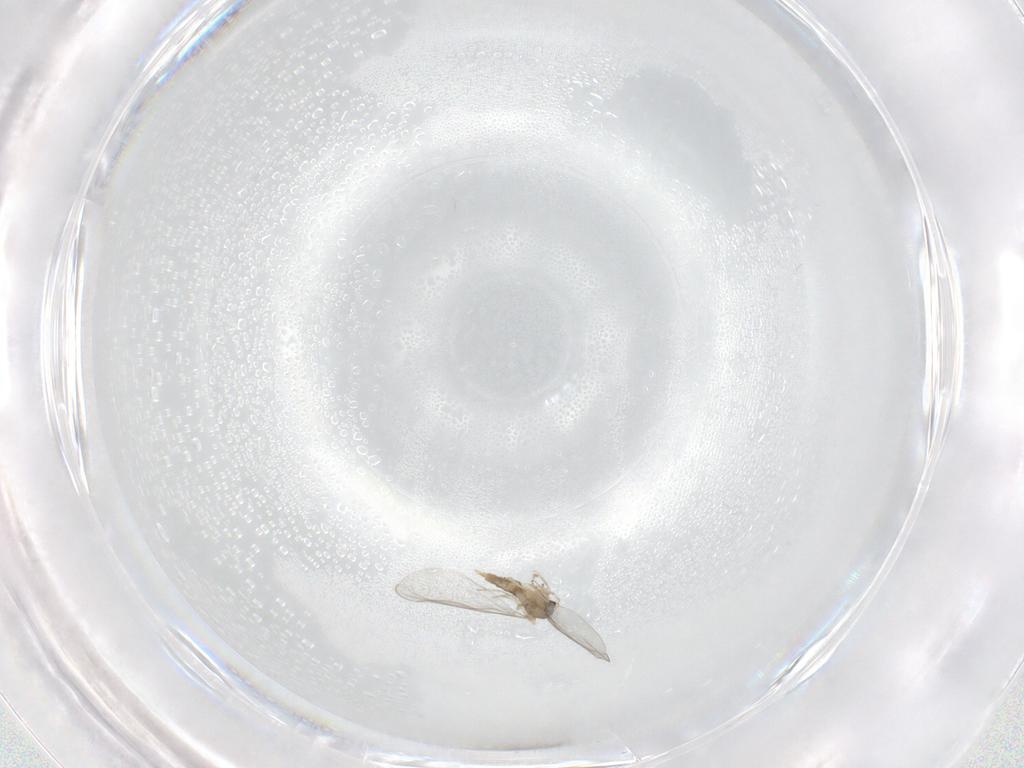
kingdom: Animalia
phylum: Arthropoda
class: Insecta
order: Diptera
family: Cecidomyiidae
